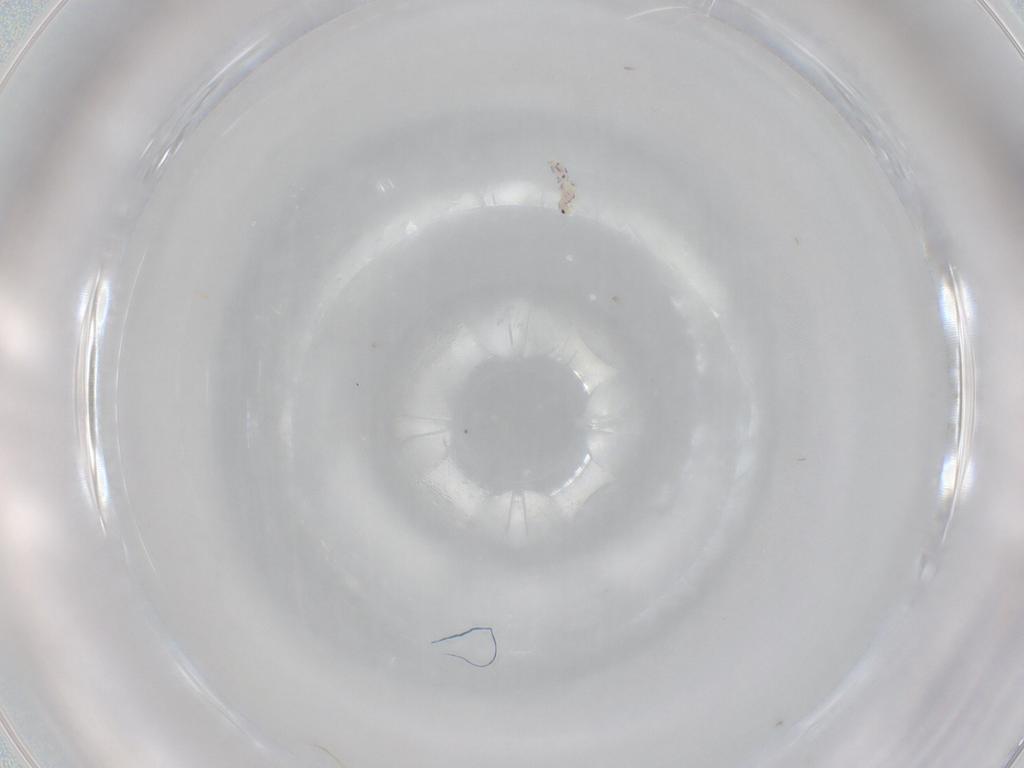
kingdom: Animalia
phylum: Arthropoda
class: Collembola
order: Entomobryomorpha
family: Entomobryidae
